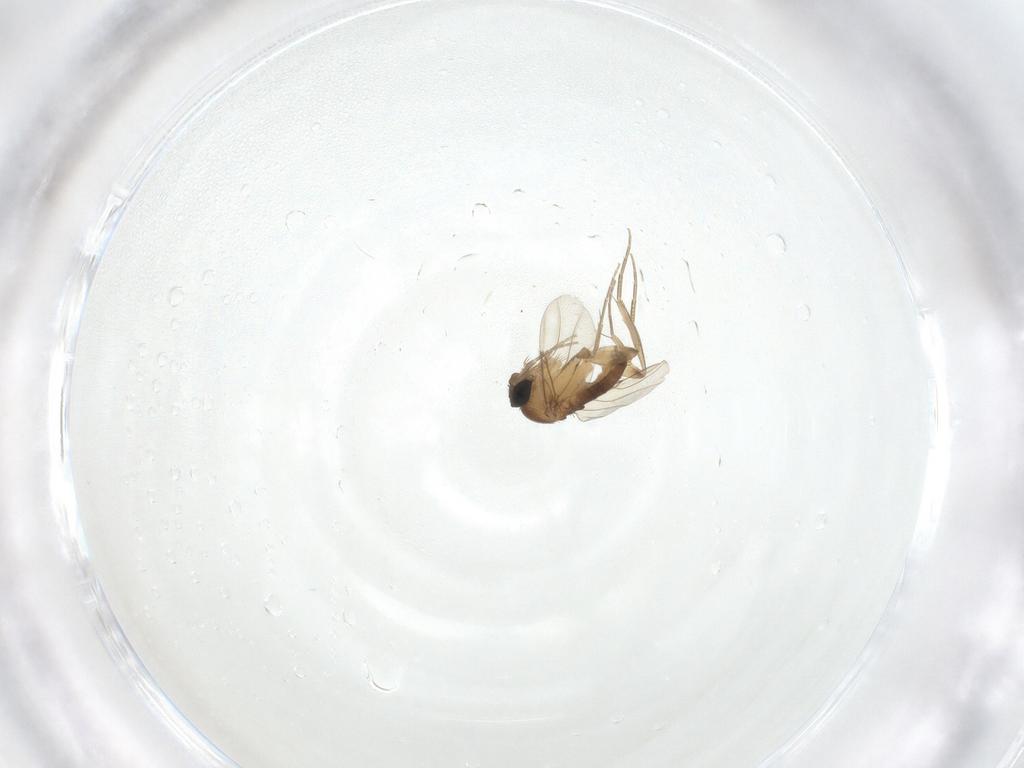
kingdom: Animalia
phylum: Arthropoda
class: Insecta
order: Diptera
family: Phoridae
